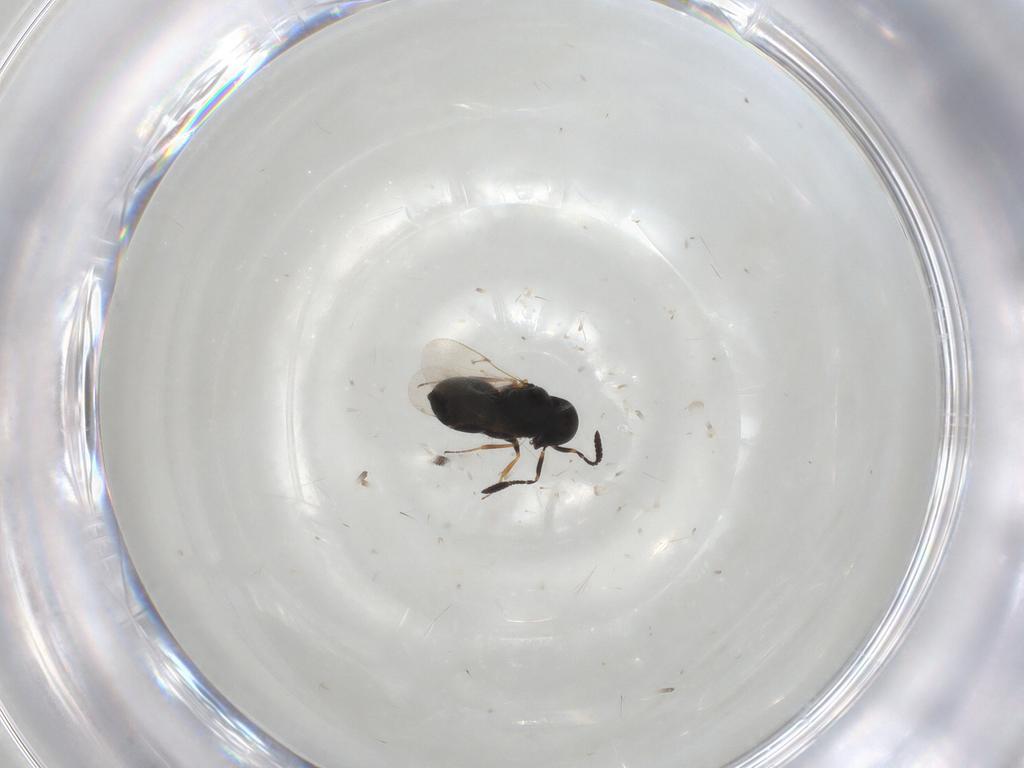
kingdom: Animalia
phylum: Arthropoda
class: Insecta
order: Hymenoptera
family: Scelionidae
